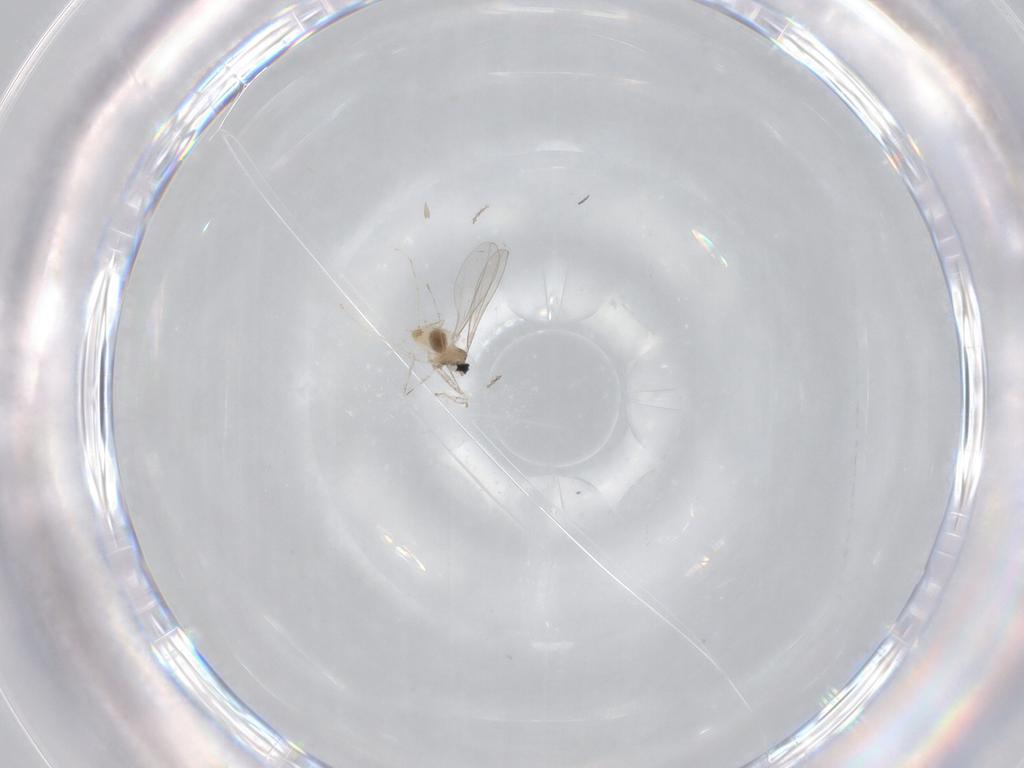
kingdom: Animalia
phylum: Arthropoda
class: Insecta
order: Diptera
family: Cecidomyiidae
